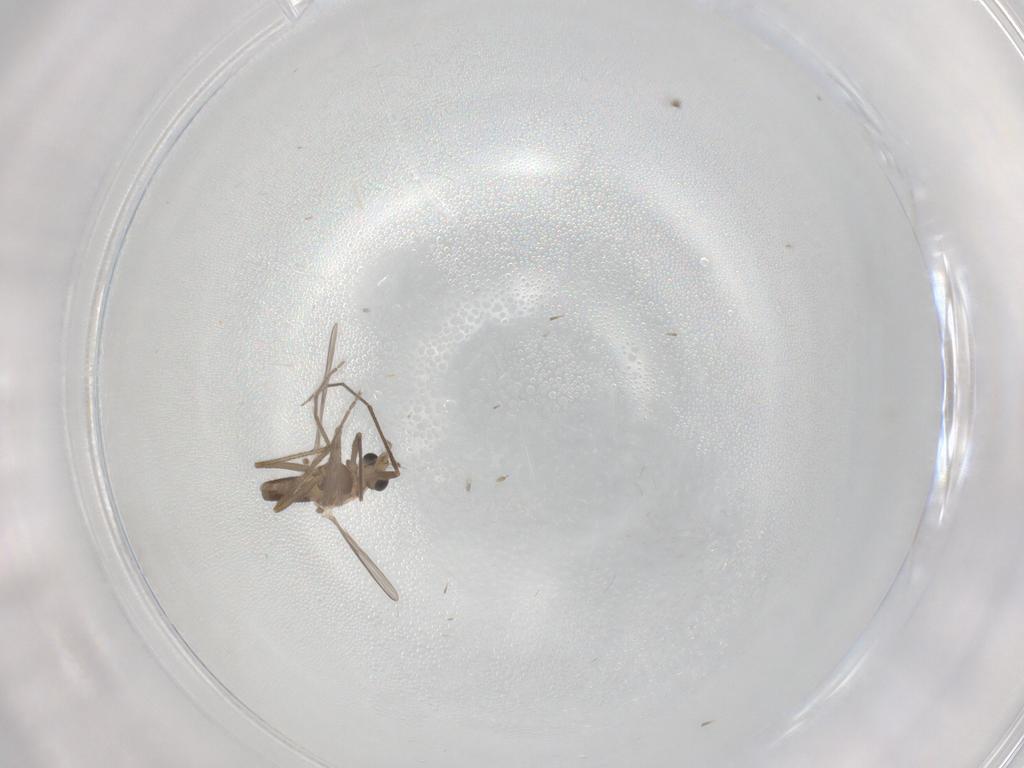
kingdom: Animalia
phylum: Arthropoda
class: Insecta
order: Diptera
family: Chironomidae
